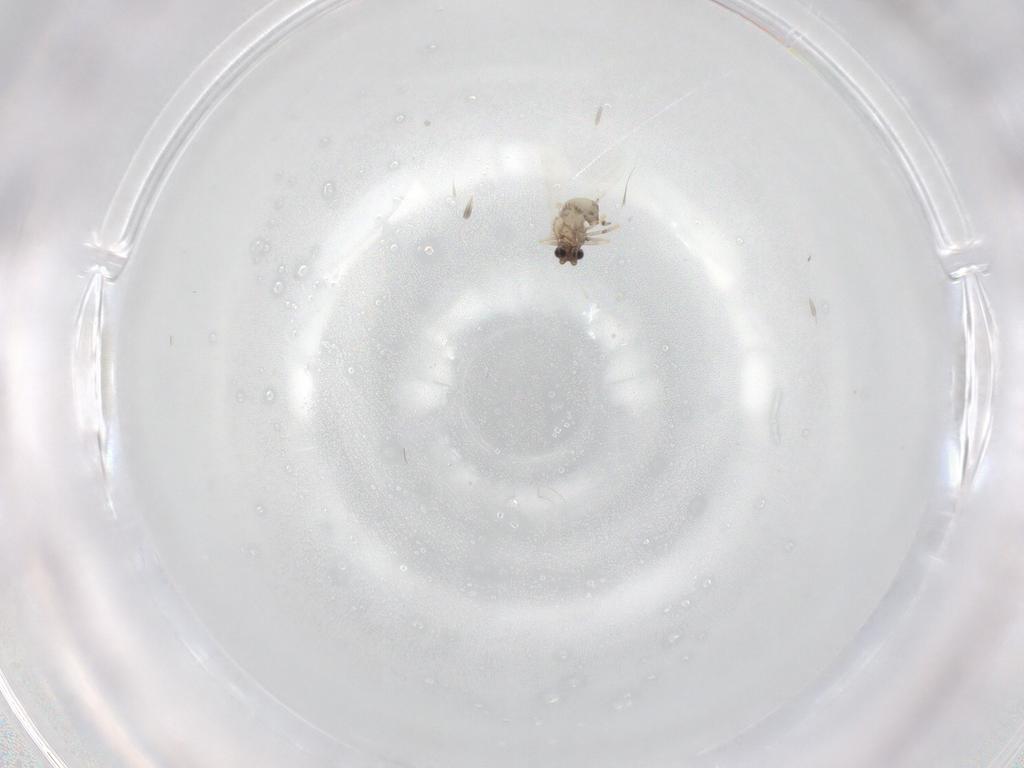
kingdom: Animalia
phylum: Arthropoda
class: Insecta
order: Diptera
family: Ceratopogonidae
